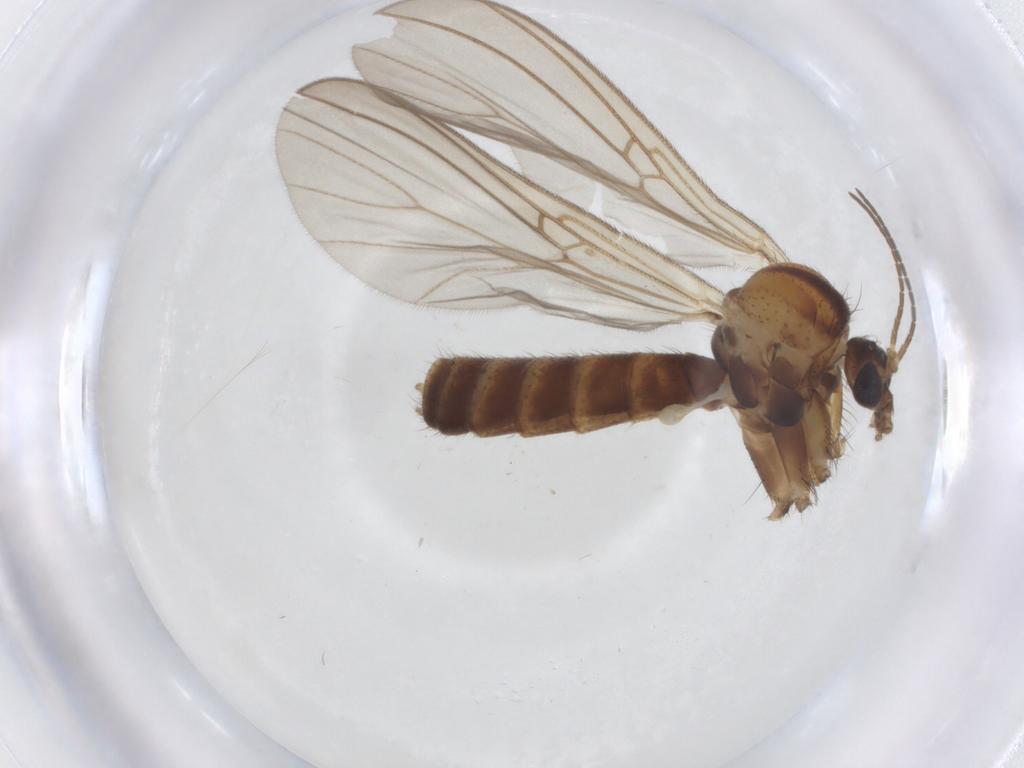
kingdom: Animalia
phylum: Arthropoda
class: Insecta
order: Diptera
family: Mycetophilidae
